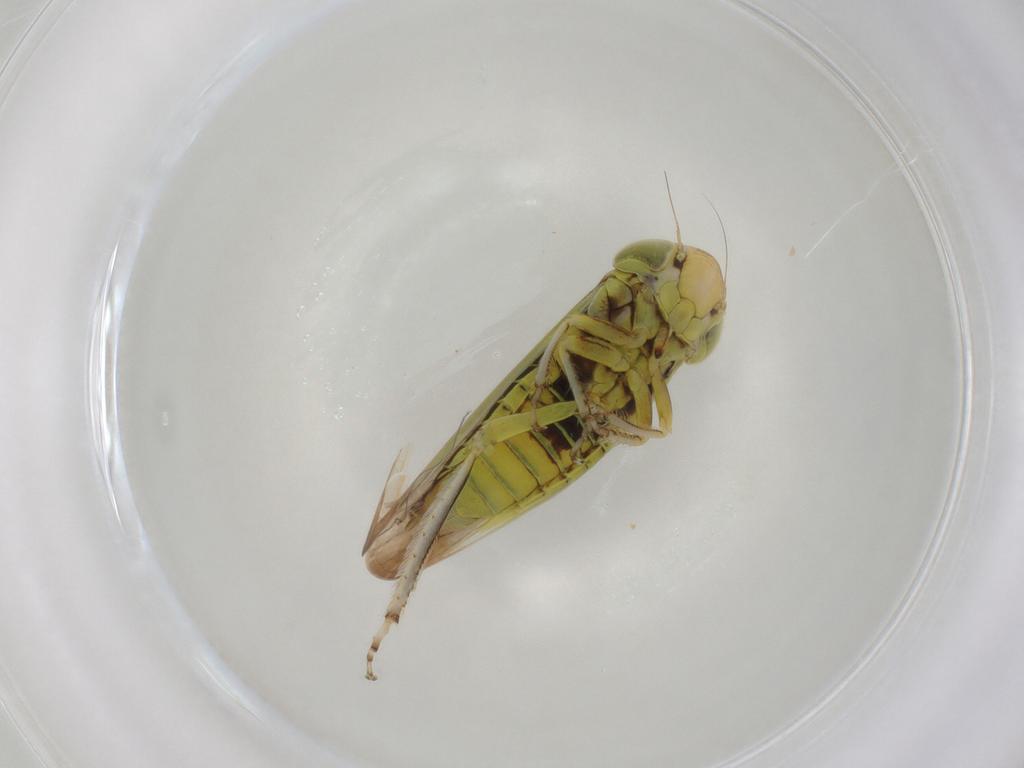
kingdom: Animalia
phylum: Arthropoda
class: Insecta
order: Hemiptera
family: Cicadellidae
